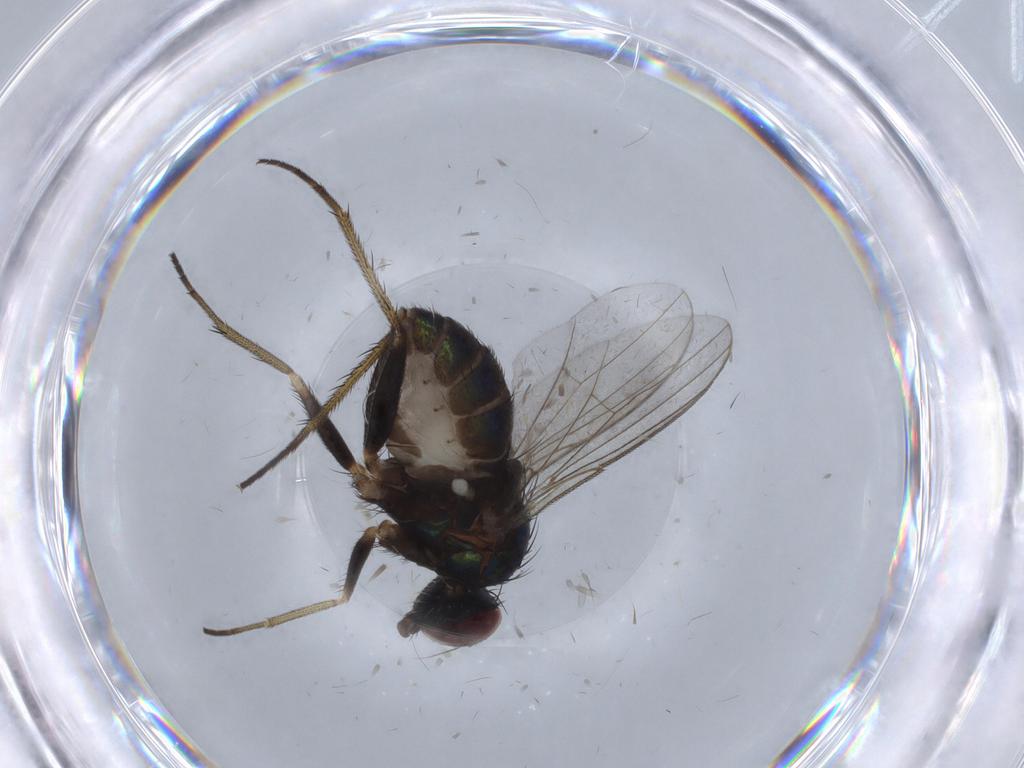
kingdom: Animalia
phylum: Arthropoda
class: Insecta
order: Diptera
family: Dolichopodidae
